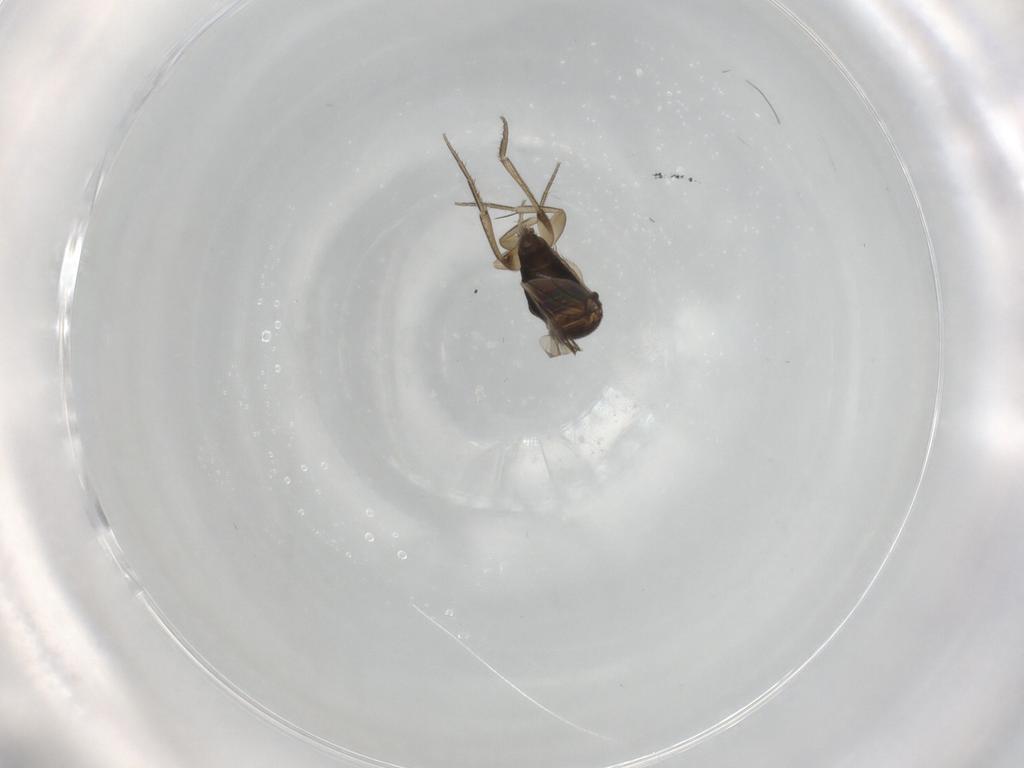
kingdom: Animalia
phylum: Arthropoda
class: Insecta
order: Diptera
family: Phoridae
